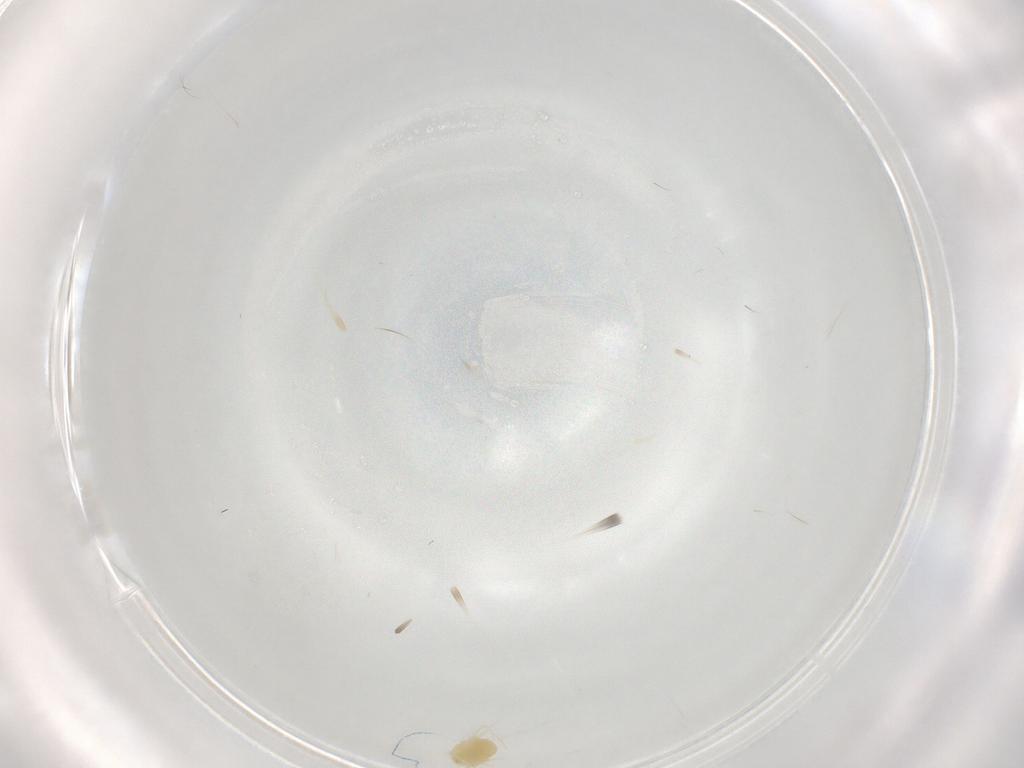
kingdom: Animalia
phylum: Arthropoda
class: Arachnida
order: Trombidiformes
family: Tetranychidae
